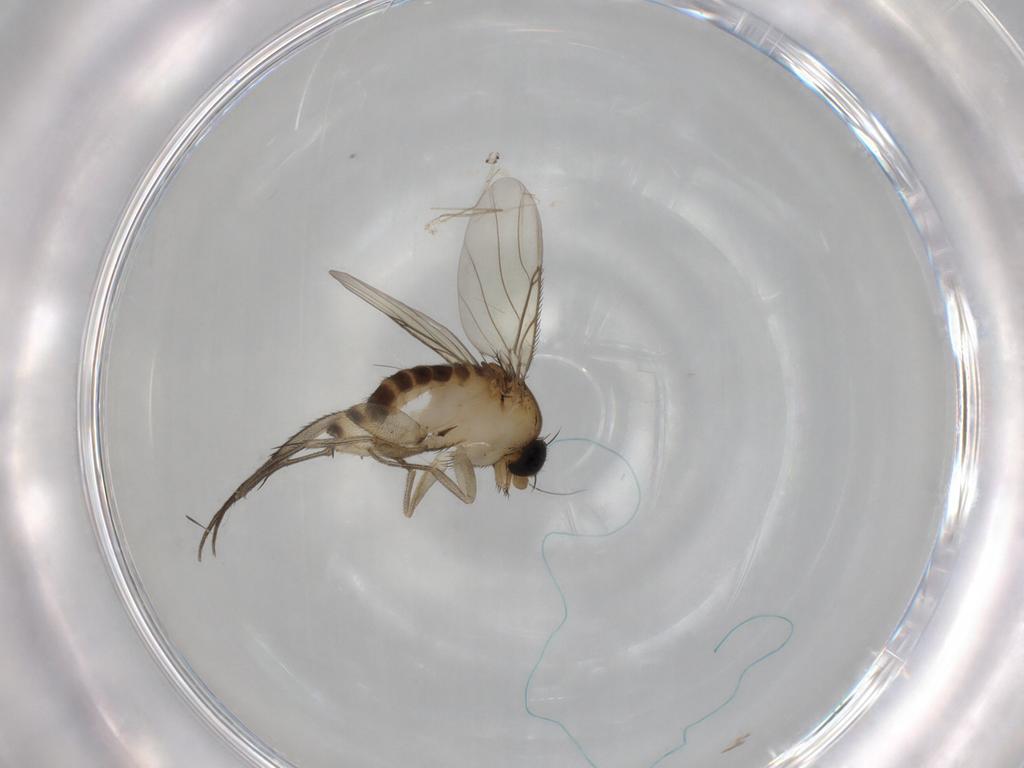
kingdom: Animalia
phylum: Arthropoda
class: Insecta
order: Diptera
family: Phoridae
